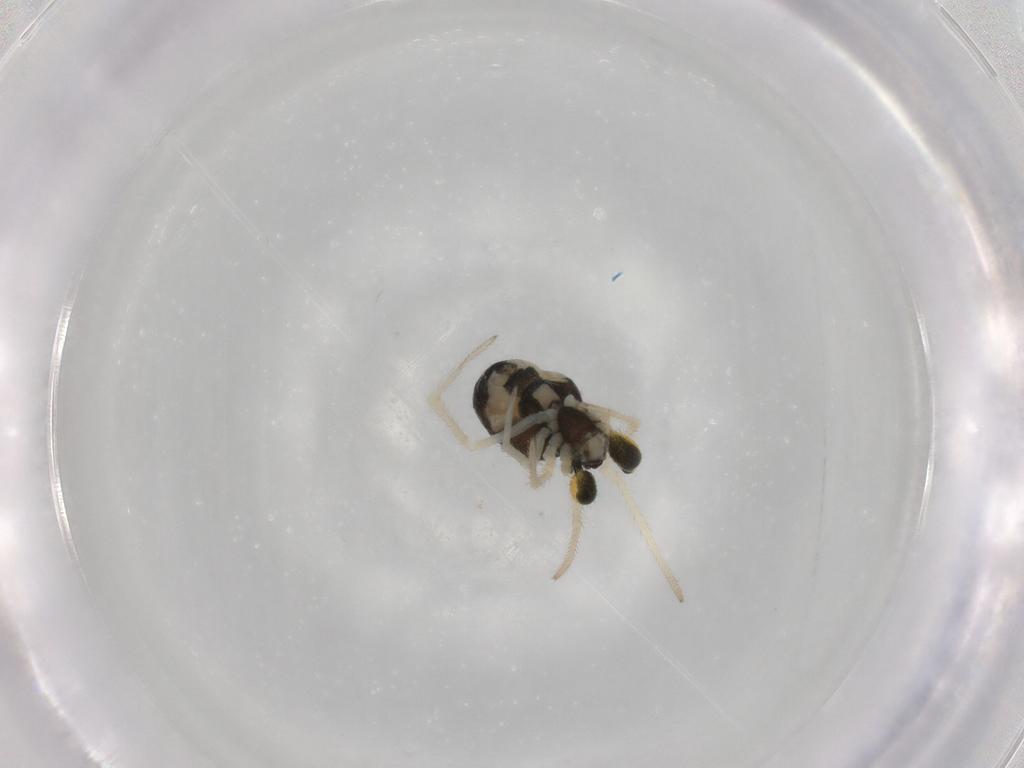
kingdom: Animalia
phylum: Arthropoda
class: Arachnida
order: Araneae
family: Theridiidae
